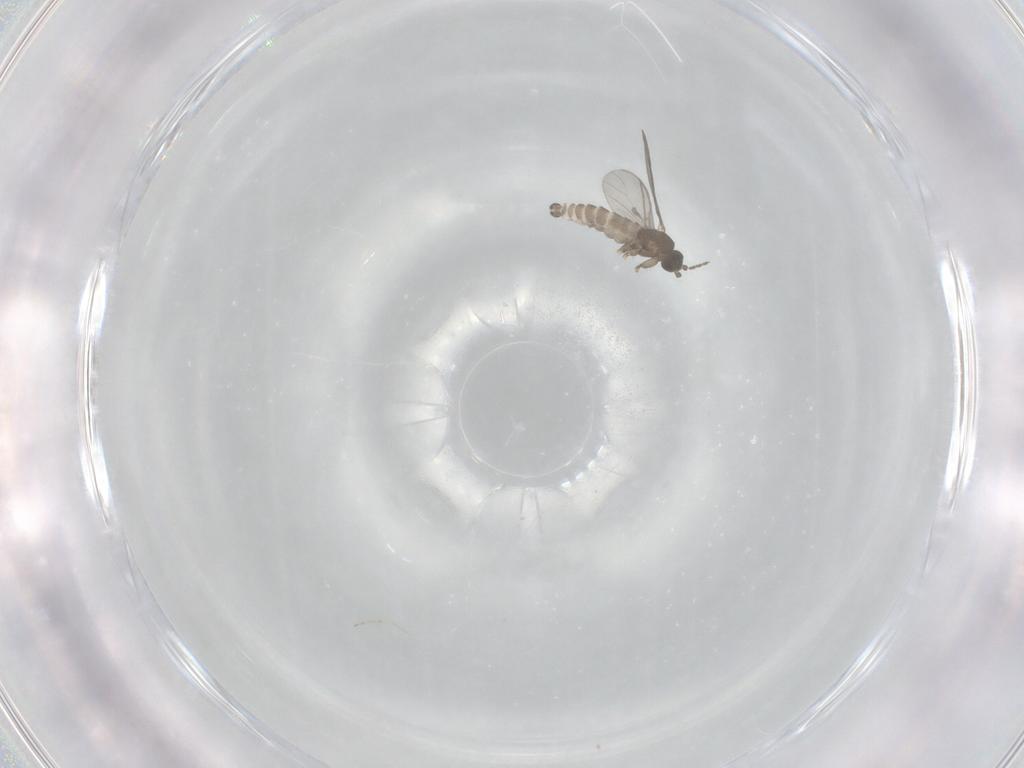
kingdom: Animalia
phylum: Arthropoda
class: Insecta
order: Diptera
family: Sciaridae
